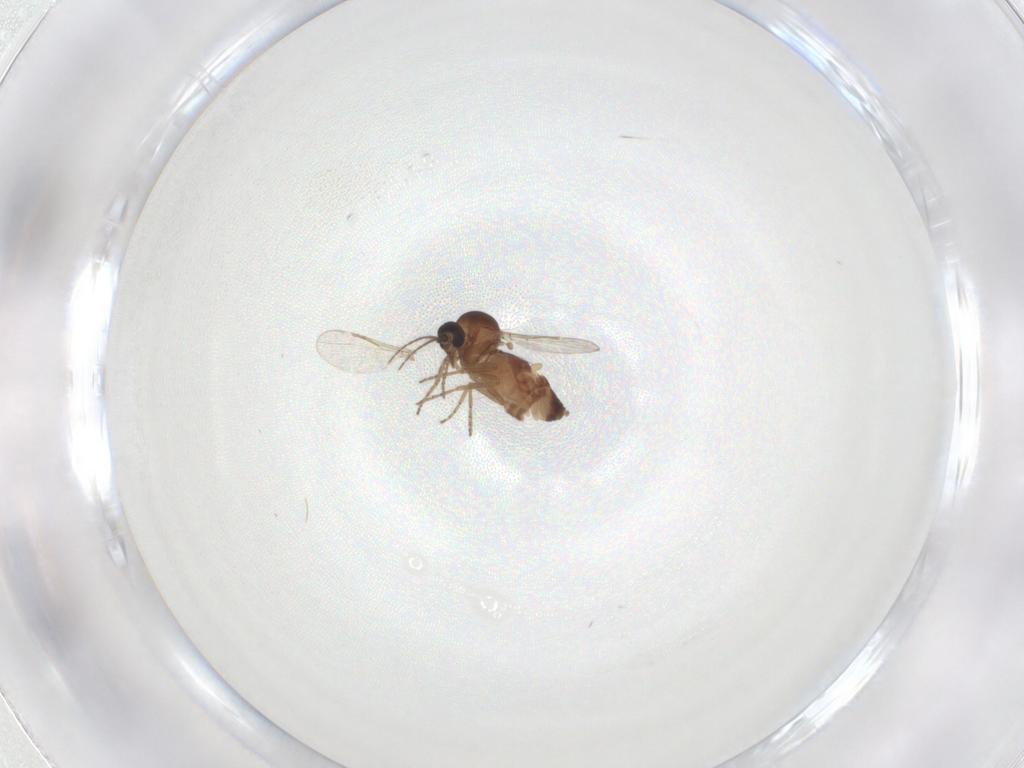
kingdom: Animalia
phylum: Arthropoda
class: Insecta
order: Diptera
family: Ceratopogonidae
